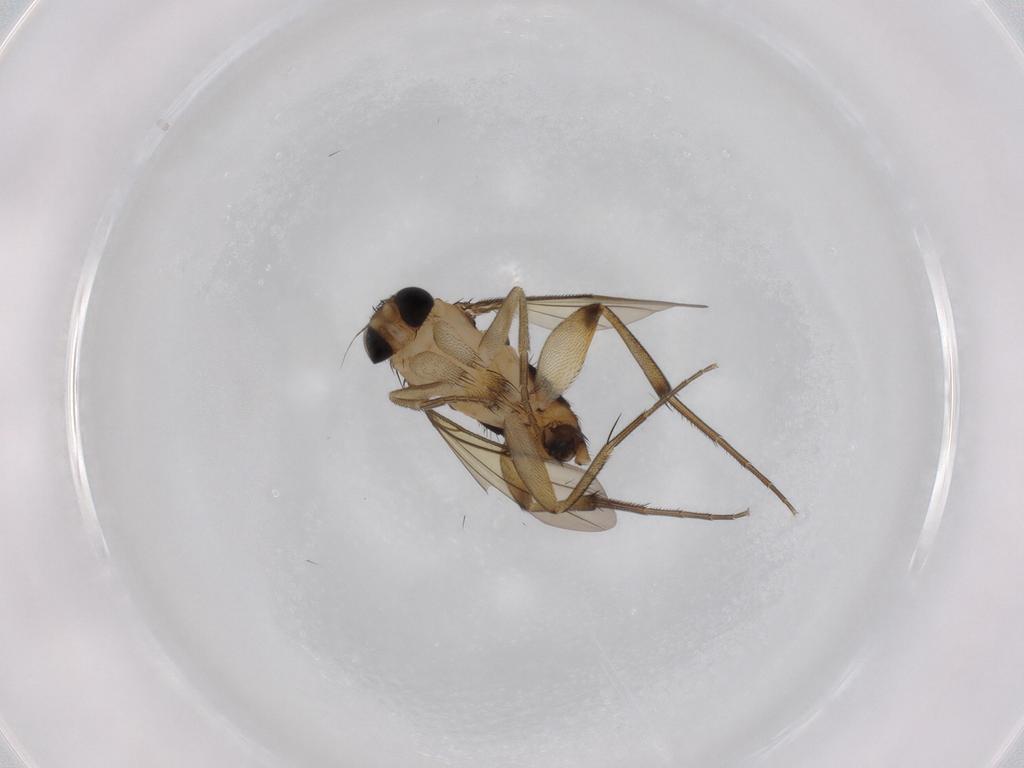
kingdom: Animalia
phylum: Arthropoda
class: Insecta
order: Diptera
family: Phoridae
